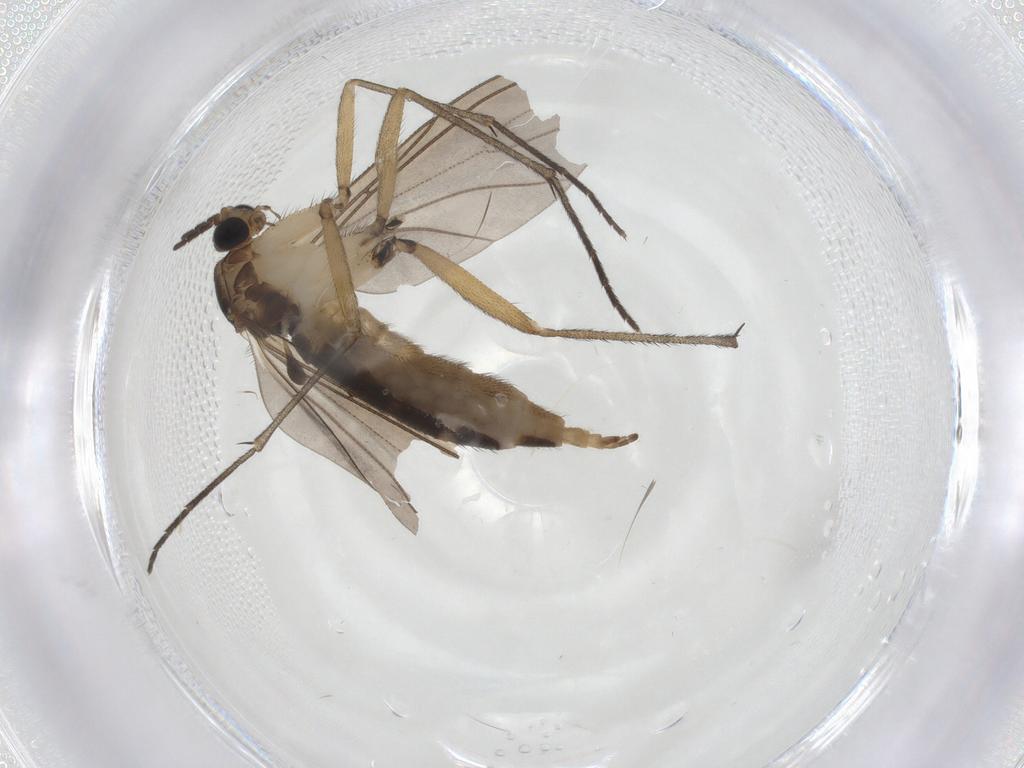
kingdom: Animalia
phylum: Arthropoda
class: Insecta
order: Diptera
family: Sciaridae
